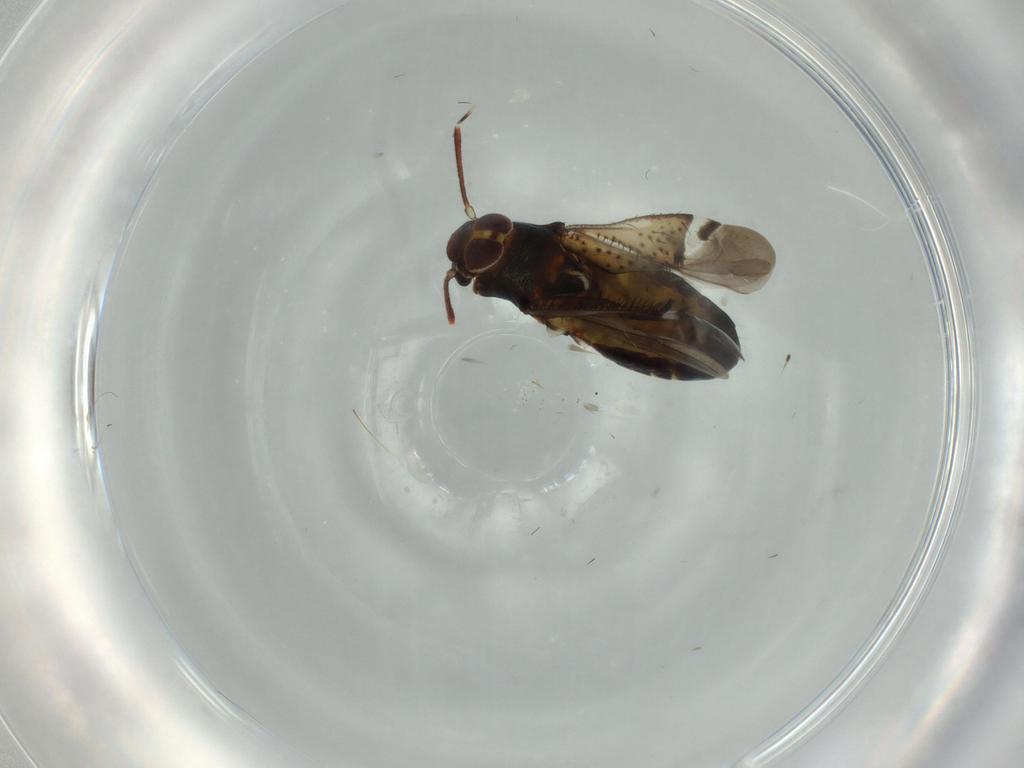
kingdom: Animalia
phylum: Arthropoda
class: Insecta
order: Hemiptera
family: Miridae
